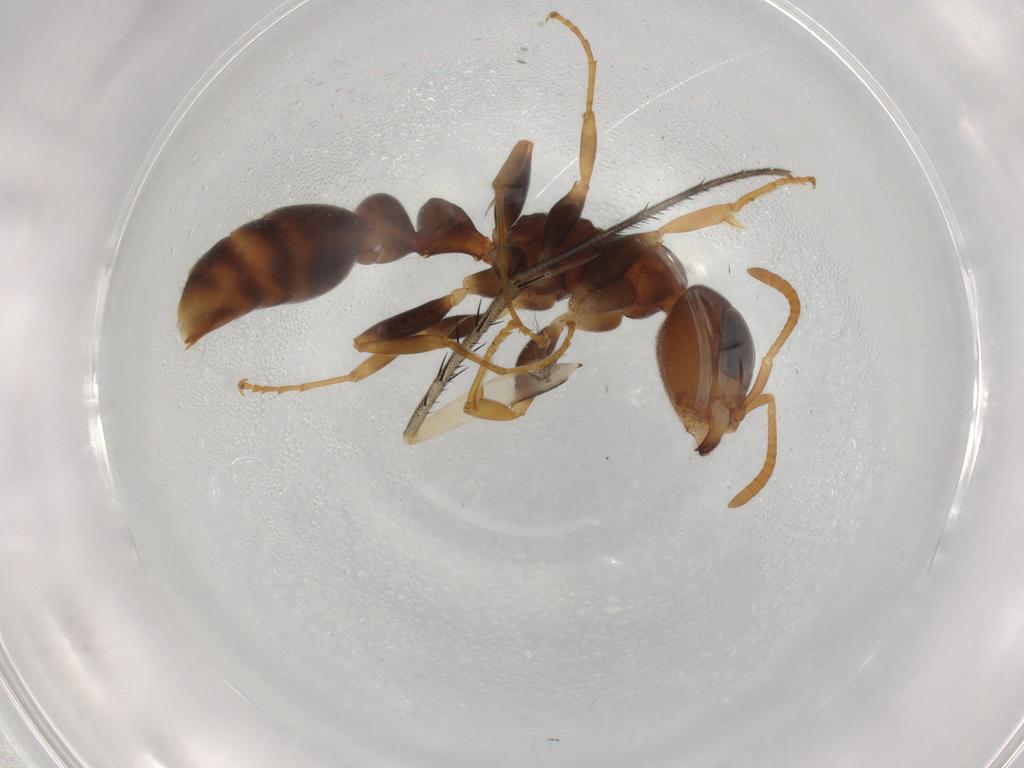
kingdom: Animalia
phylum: Arthropoda
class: Insecta
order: Hymenoptera
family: Formicidae
